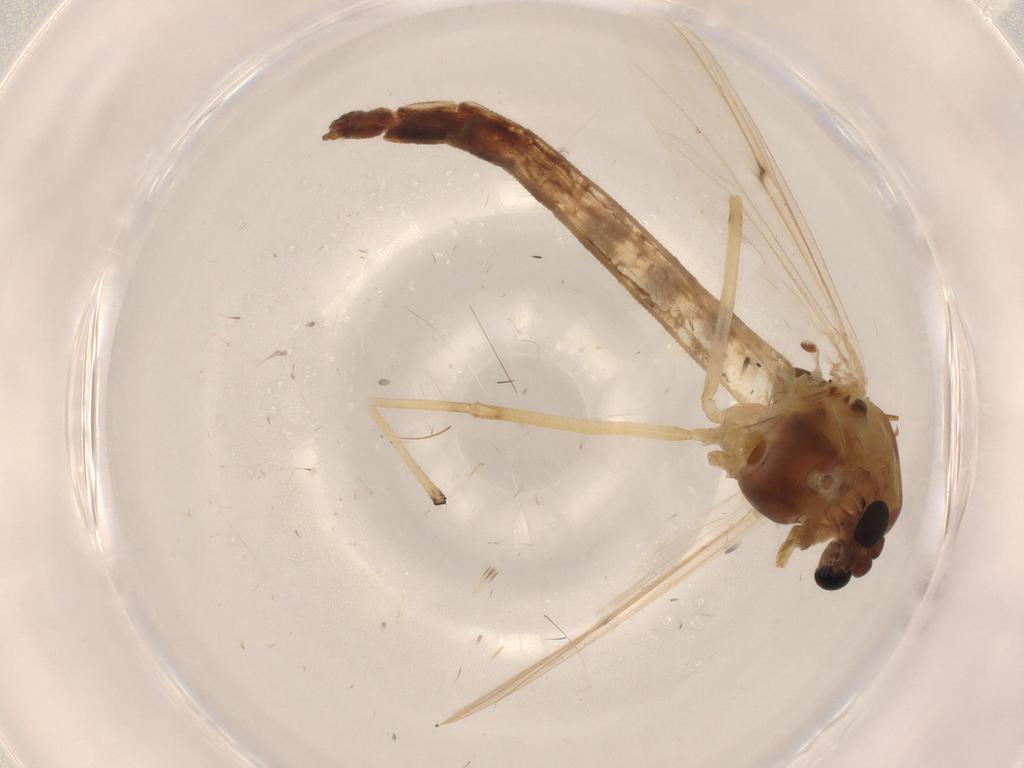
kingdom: Animalia
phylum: Arthropoda
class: Insecta
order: Diptera
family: Chironomidae
